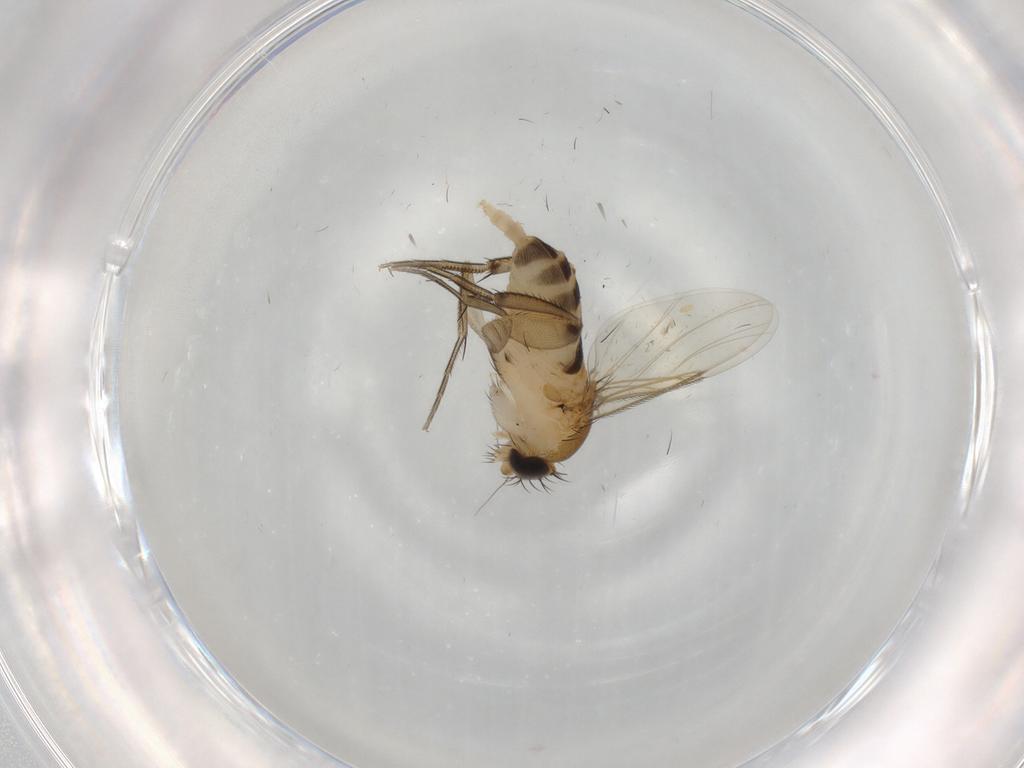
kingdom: Animalia
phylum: Arthropoda
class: Insecta
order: Diptera
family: Phoridae
